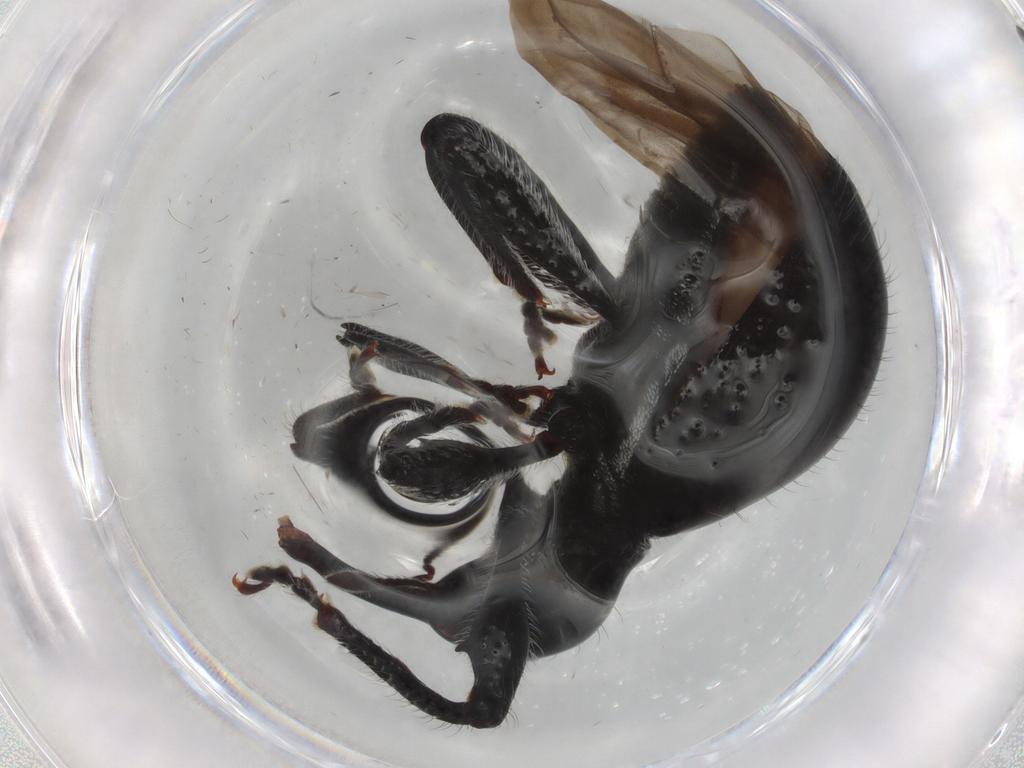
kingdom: Animalia
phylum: Arthropoda
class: Insecta
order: Coleoptera
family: Curculionidae
